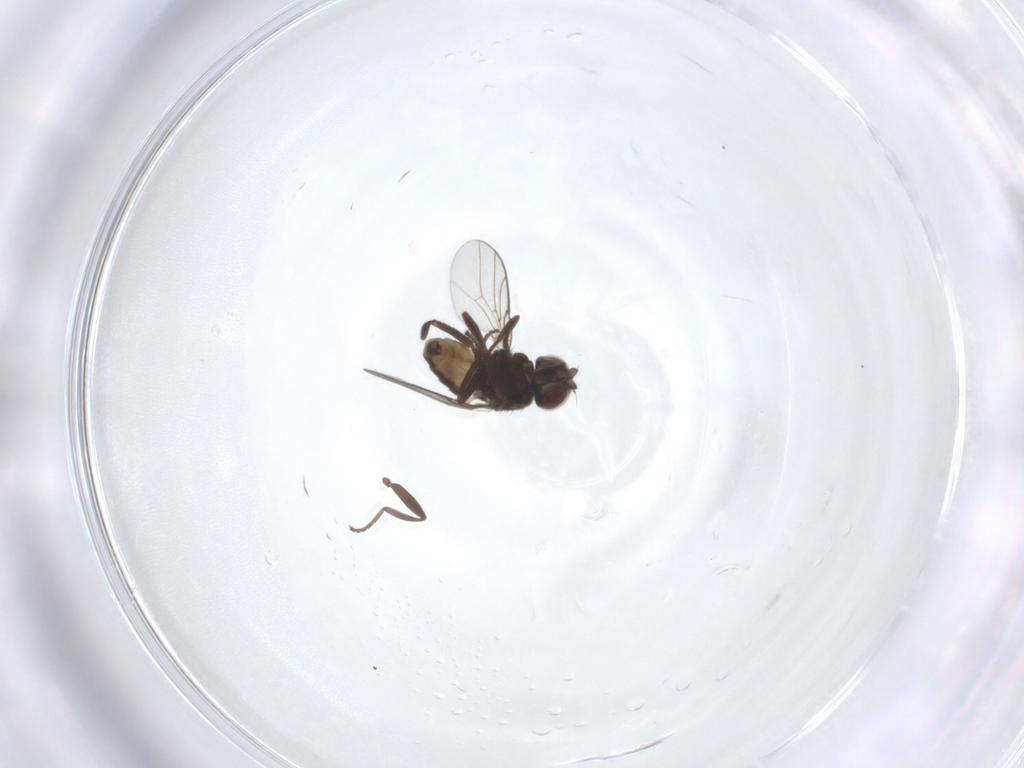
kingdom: Animalia
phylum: Arthropoda
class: Insecta
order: Diptera
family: Chloropidae
